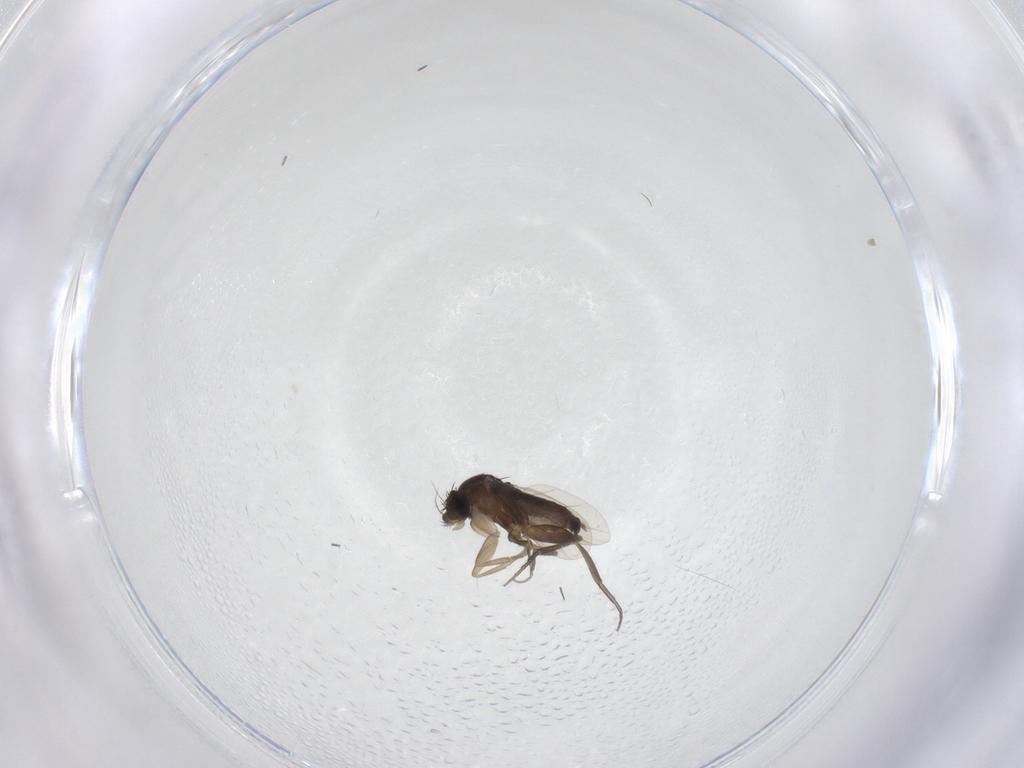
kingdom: Animalia
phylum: Arthropoda
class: Insecta
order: Diptera
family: Phoridae
